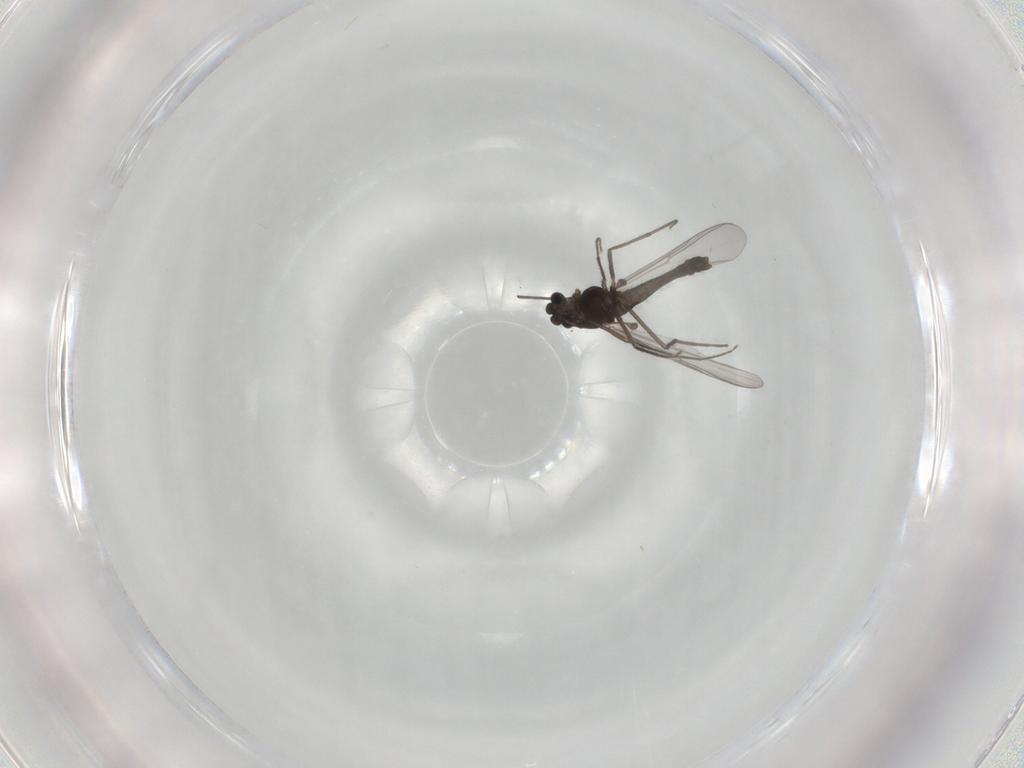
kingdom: Animalia
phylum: Arthropoda
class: Insecta
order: Diptera
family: Chironomidae
